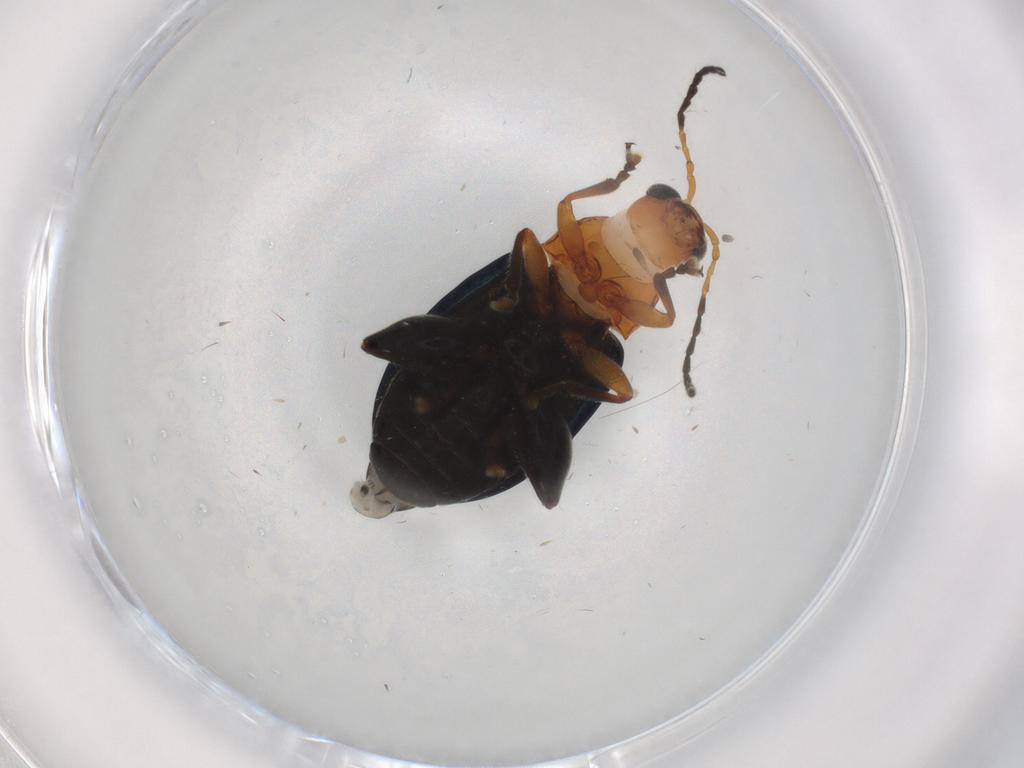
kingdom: Animalia
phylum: Arthropoda
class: Insecta
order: Coleoptera
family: Chrysomelidae
